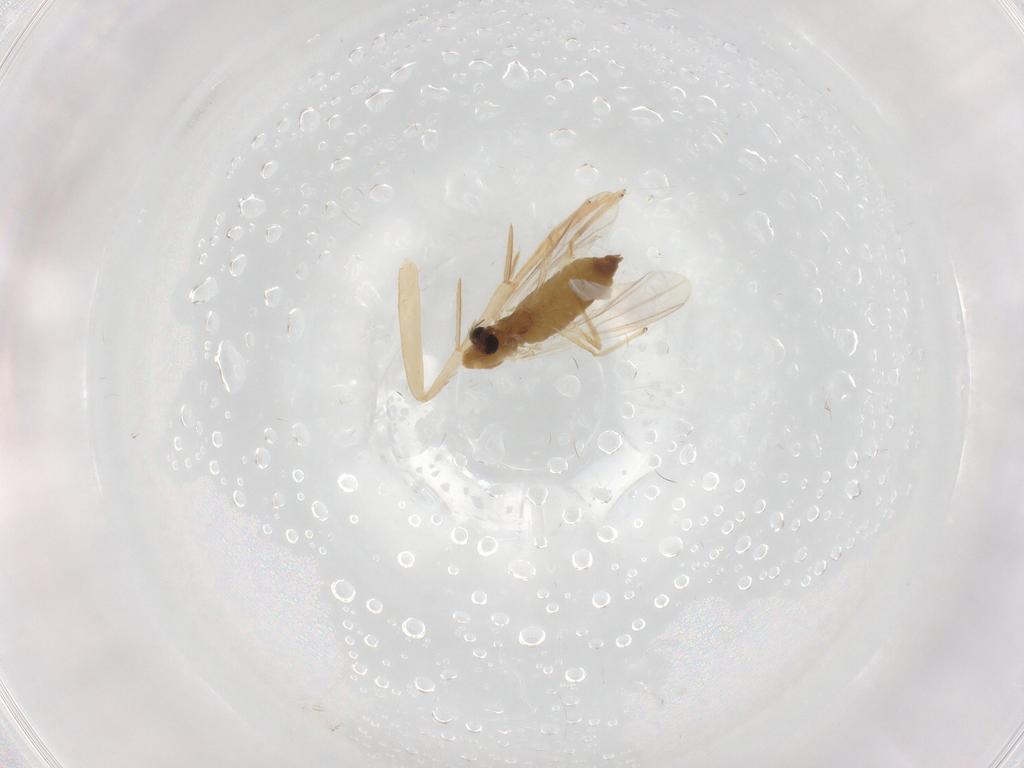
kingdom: Animalia
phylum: Arthropoda
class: Insecta
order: Diptera
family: Chironomidae
